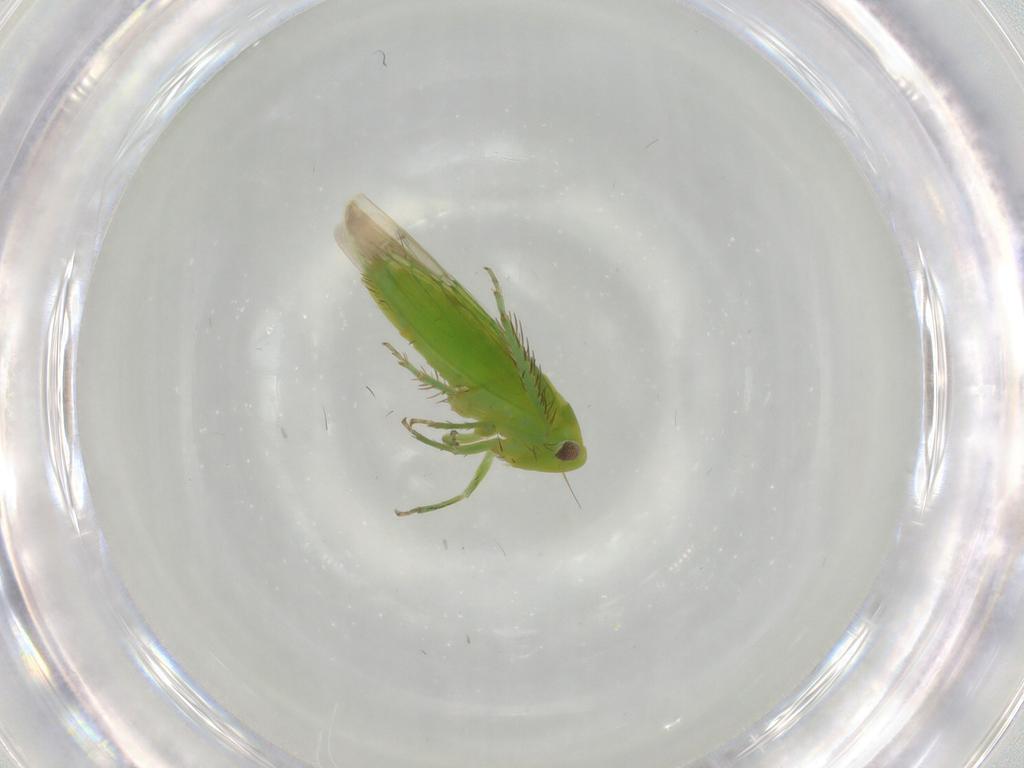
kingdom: Animalia
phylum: Arthropoda
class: Insecta
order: Hemiptera
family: Cicadellidae
